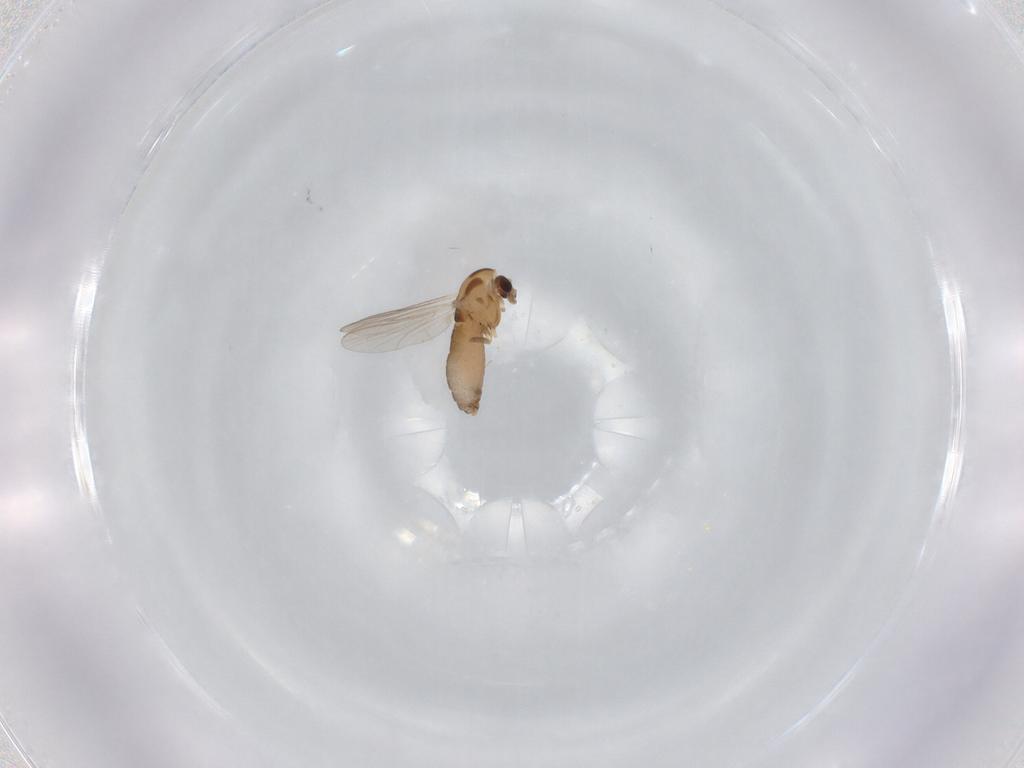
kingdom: Animalia
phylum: Arthropoda
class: Insecta
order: Diptera
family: Chironomidae
